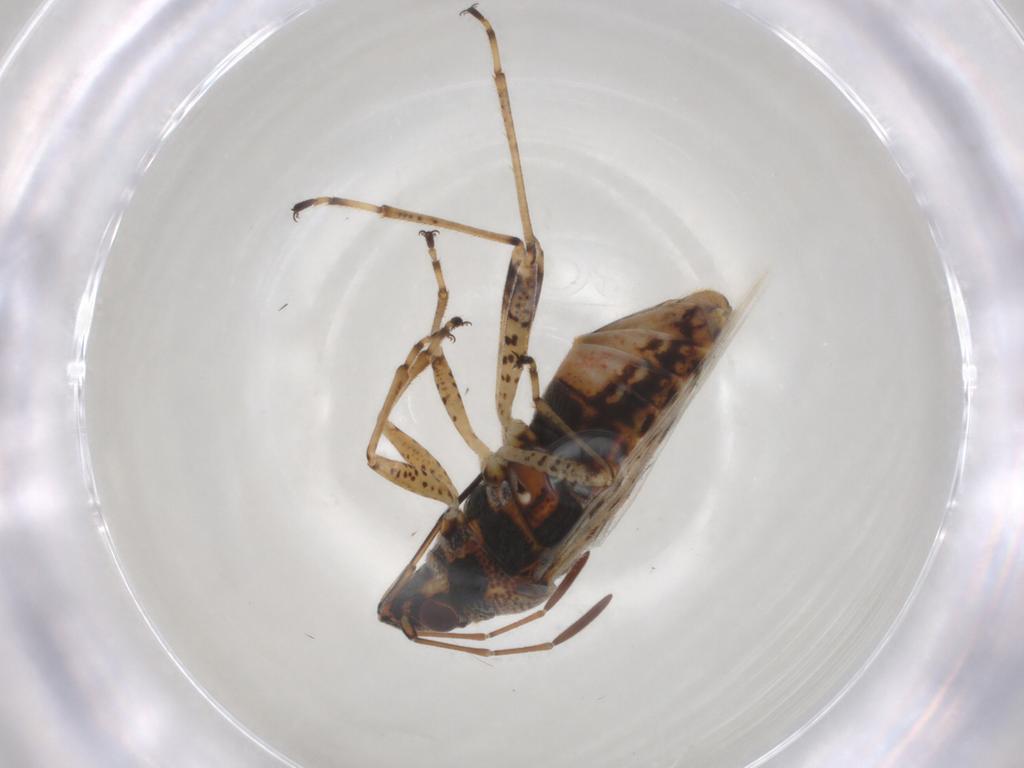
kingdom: Animalia
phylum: Arthropoda
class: Insecta
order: Hemiptera
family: Lygaeidae
